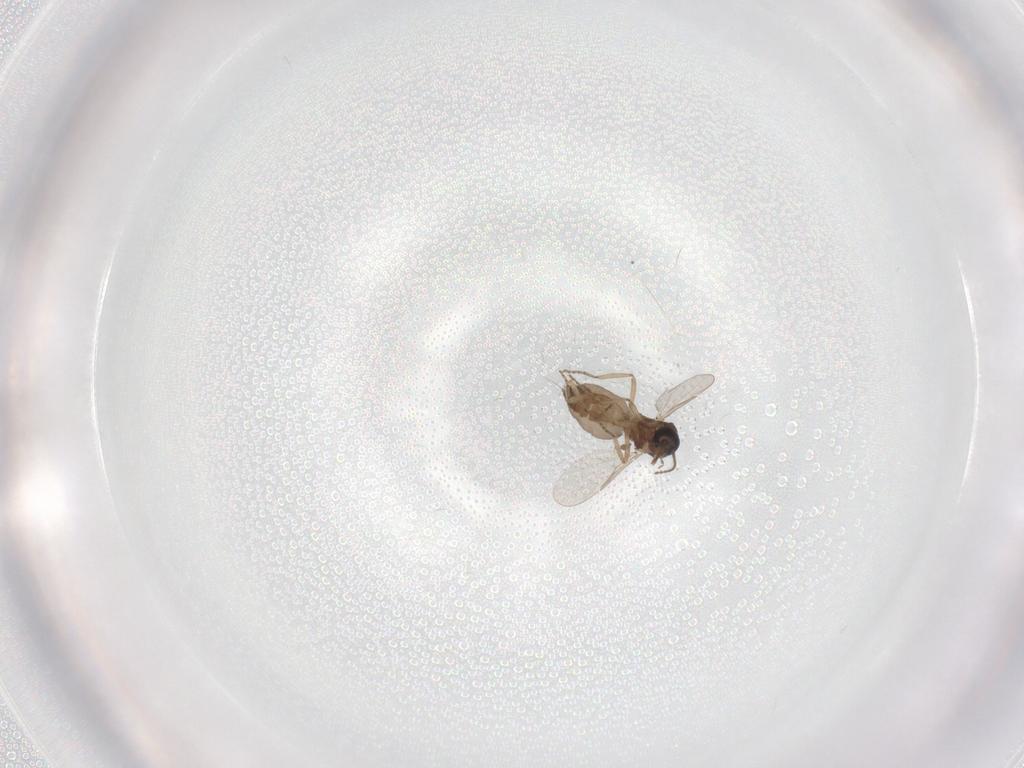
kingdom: Animalia
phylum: Arthropoda
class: Insecta
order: Diptera
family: Ceratopogonidae
